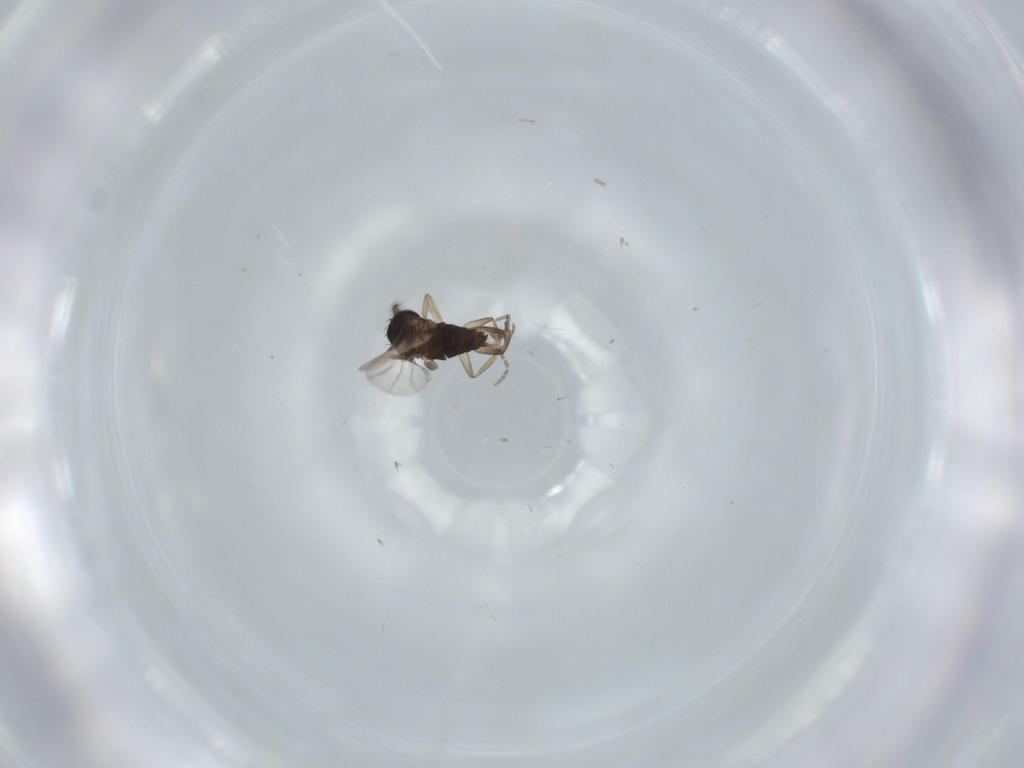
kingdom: Animalia
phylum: Arthropoda
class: Insecta
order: Diptera
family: Phoridae
